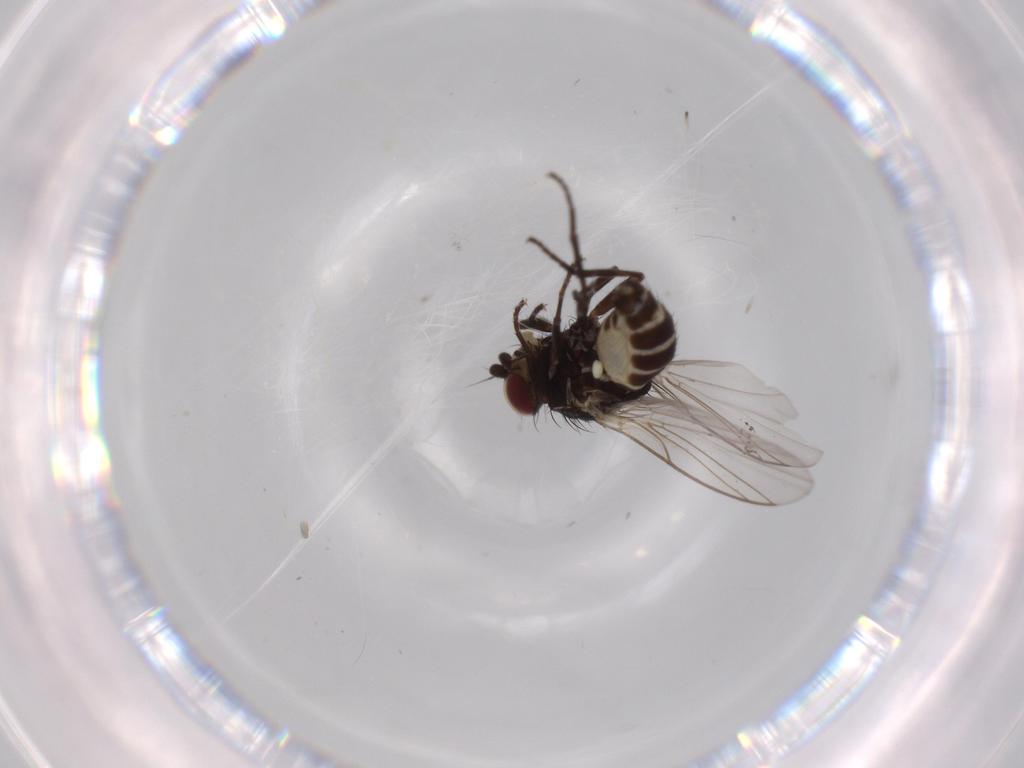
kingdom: Animalia
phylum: Arthropoda
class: Insecta
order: Diptera
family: Agromyzidae
